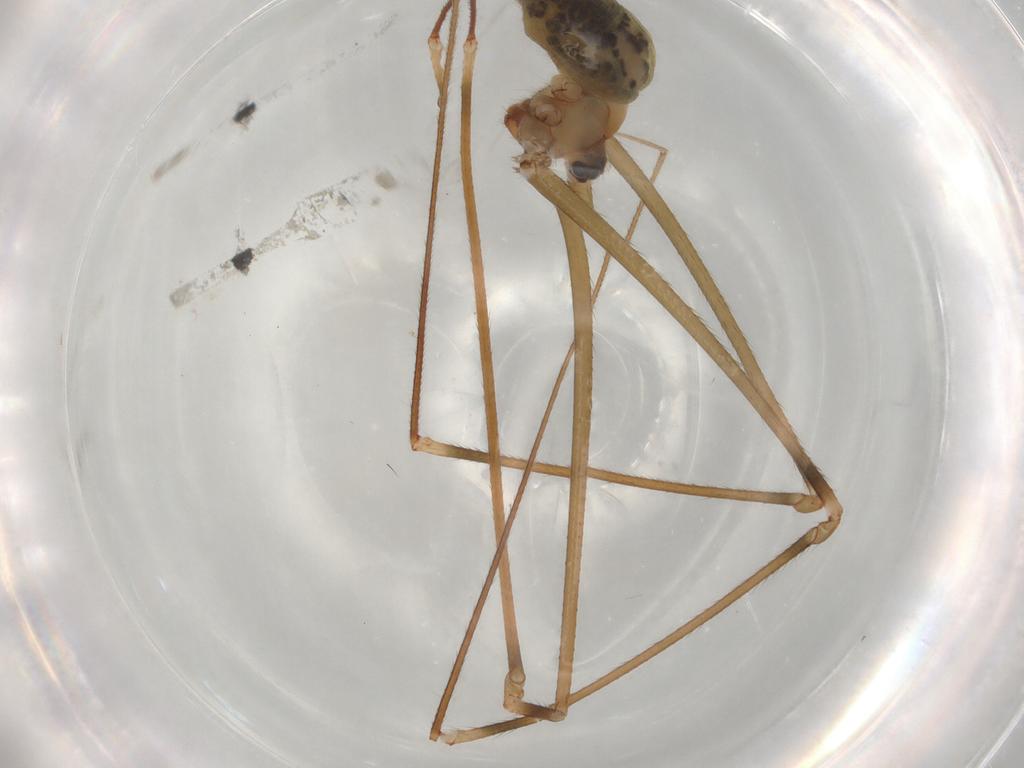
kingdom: Animalia
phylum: Arthropoda
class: Arachnida
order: Araneae
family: Pholcidae
